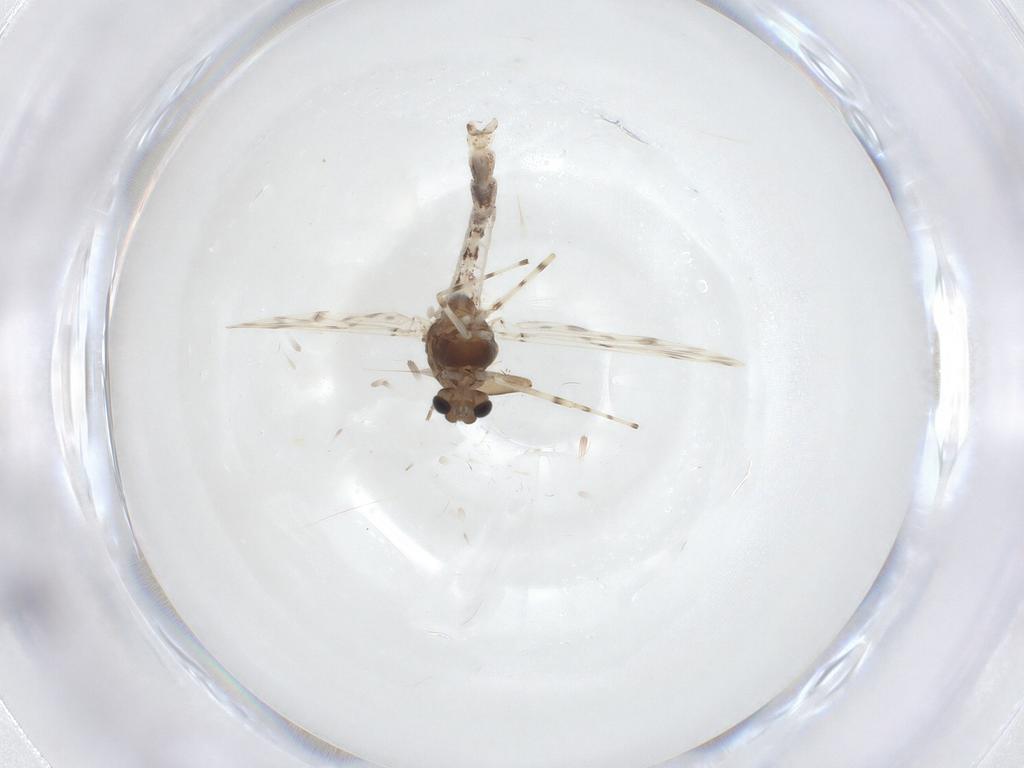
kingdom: Animalia
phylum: Arthropoda
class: Insecta
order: Diptera
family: Chironomidae
